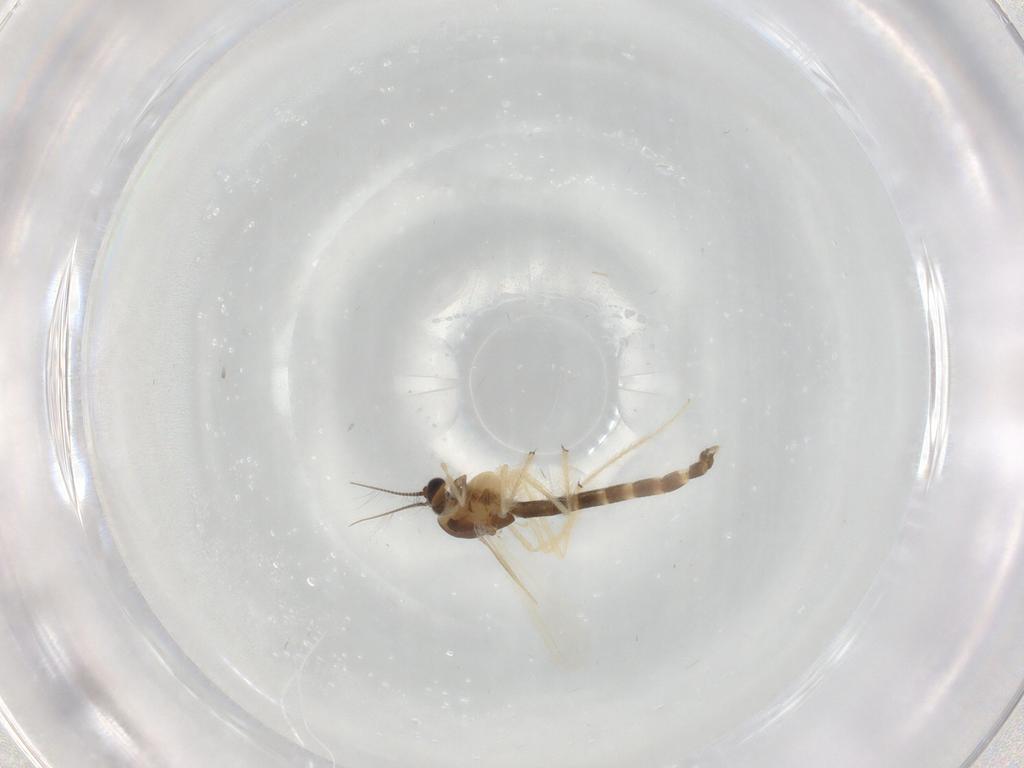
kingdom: Animalia
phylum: Arthropoda
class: Insecta
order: Diptera
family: Chironomidae
